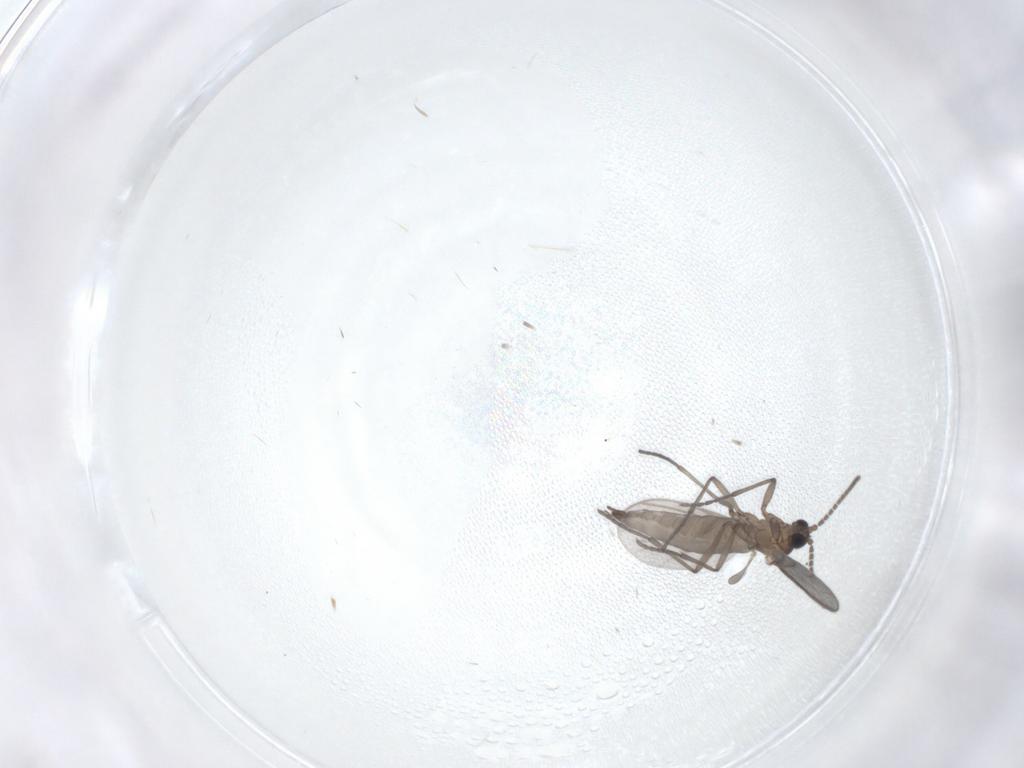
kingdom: Animalia
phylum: Arthropoda
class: Insecta
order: Diptera
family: Sciaridae
